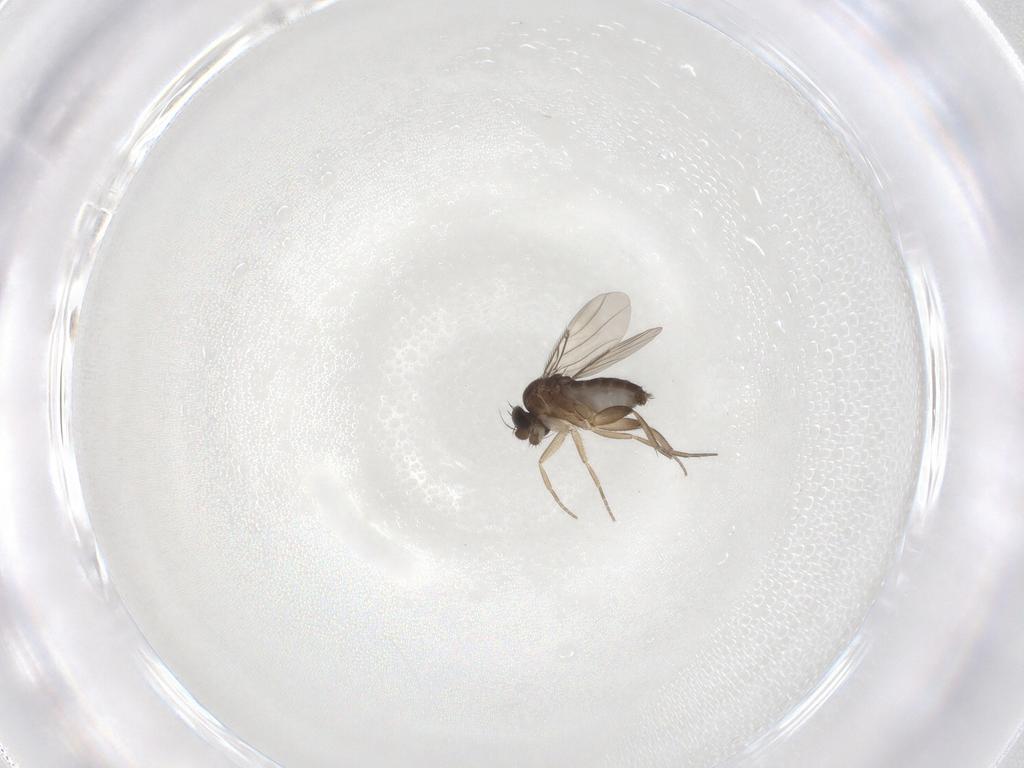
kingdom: Animalia
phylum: Arthropoda
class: Insecta
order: Diptera
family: Phoridae
